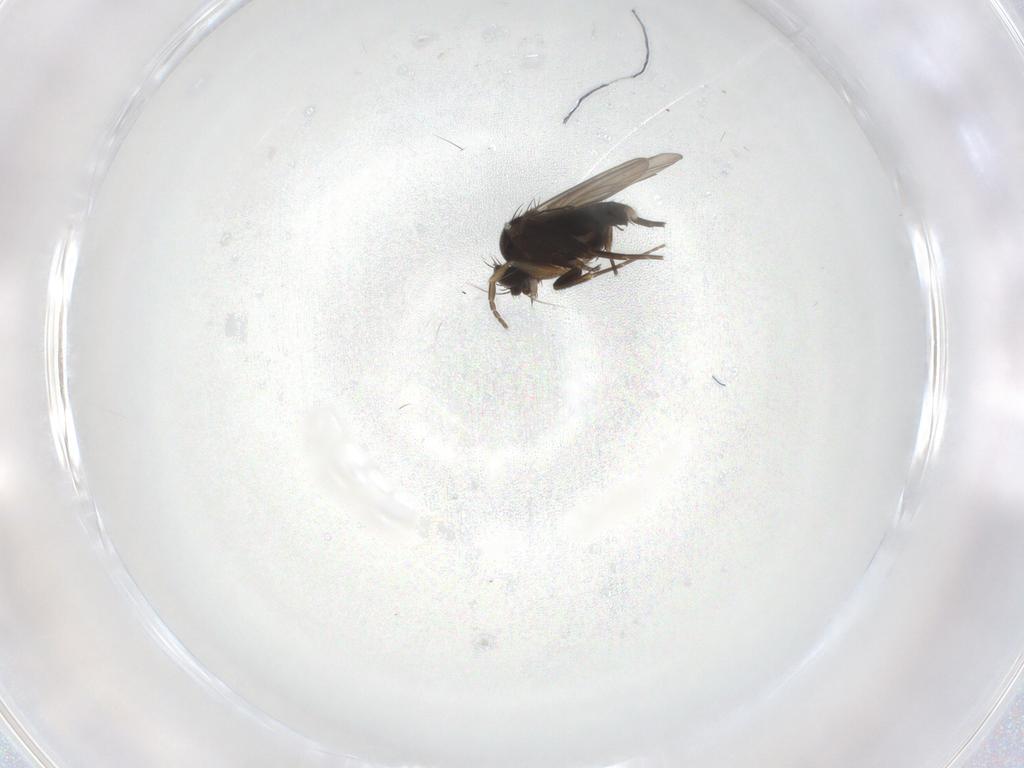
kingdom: Animalia
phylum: Arthropoda
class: Insecta
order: Diptera
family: Phoridae
